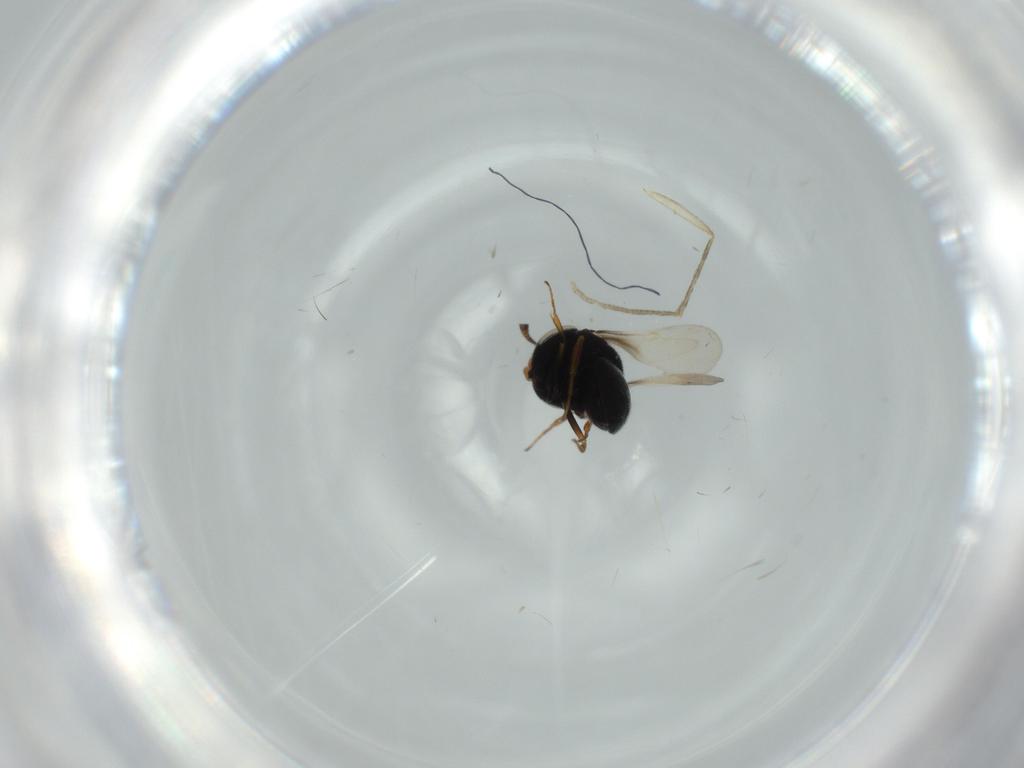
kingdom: Animalia
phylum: Arthropoda
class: Insecta
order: Hymenoptera
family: Scelionidae
